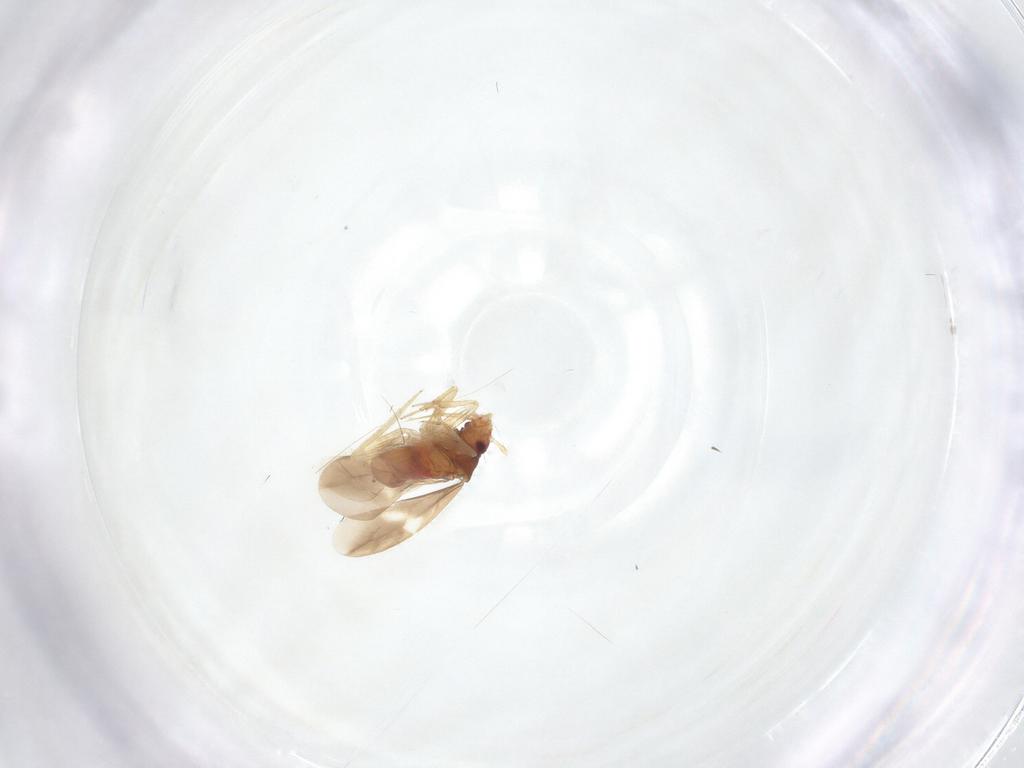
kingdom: Animalia
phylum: Arthropoda
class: Insecta
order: Hemiptera
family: Ceratocombidae
